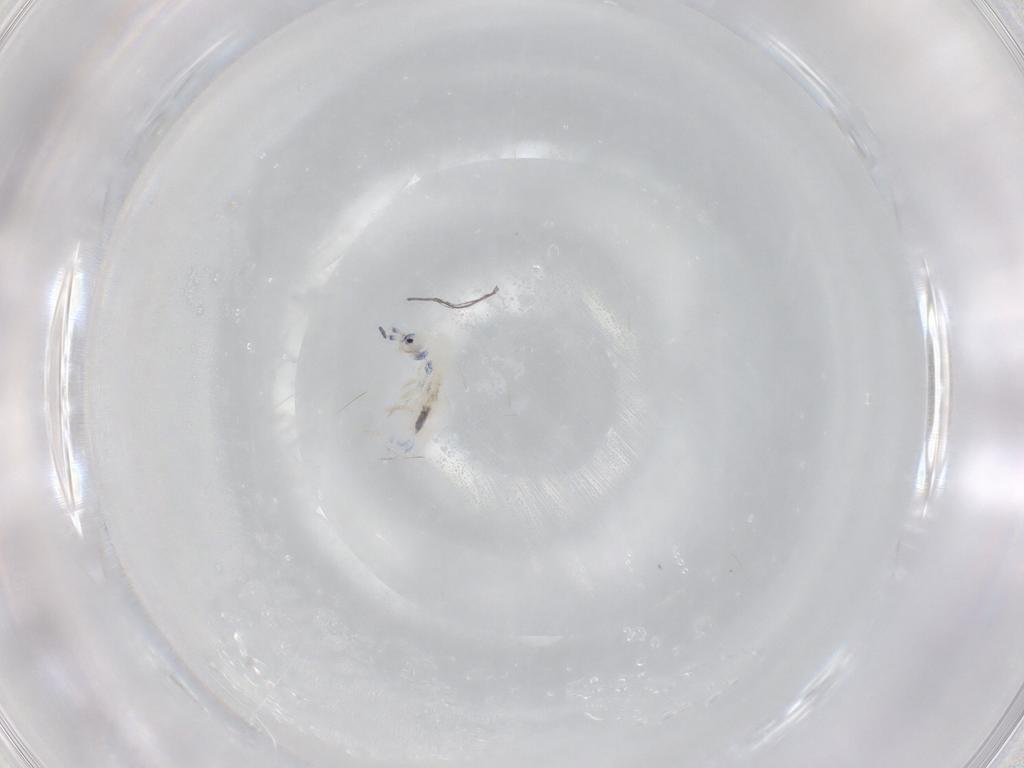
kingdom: Animalia
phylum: Arthropoda
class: Collembola
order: Entomobryomorpha
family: Entomobryidae
